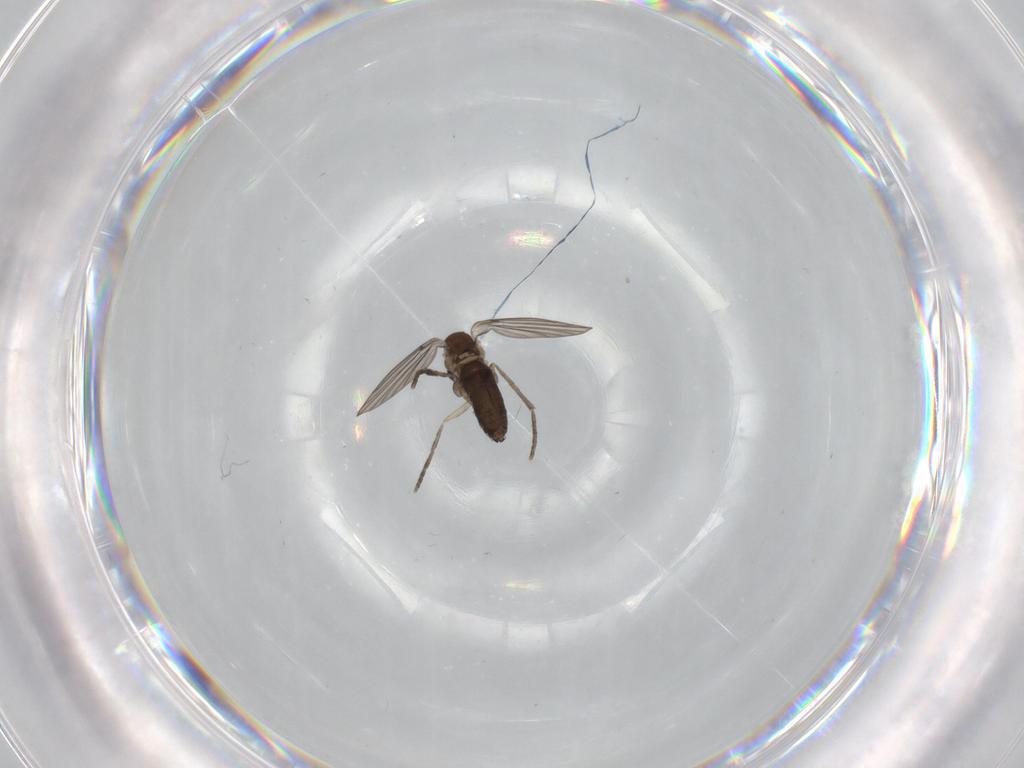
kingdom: Animalia
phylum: Arthropoda
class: Insecta
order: Diptera
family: Cecidomyiidae
